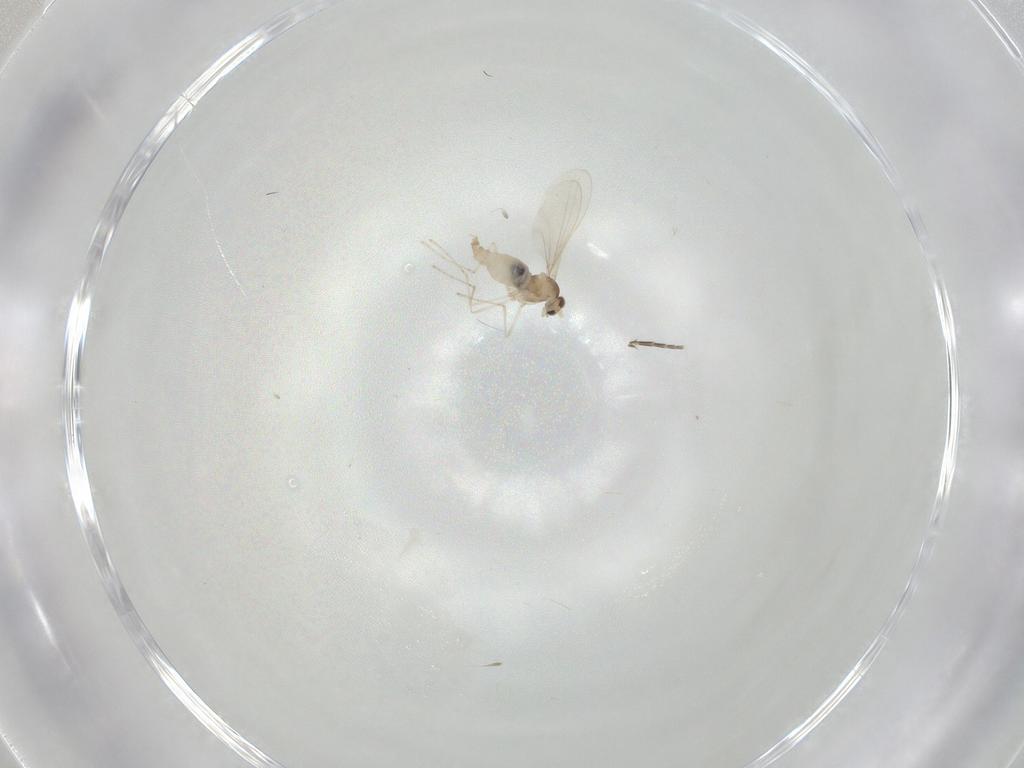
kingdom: Animalia
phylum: Arthropoda
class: Insecta
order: Diptera
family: Cecidomyiidae
